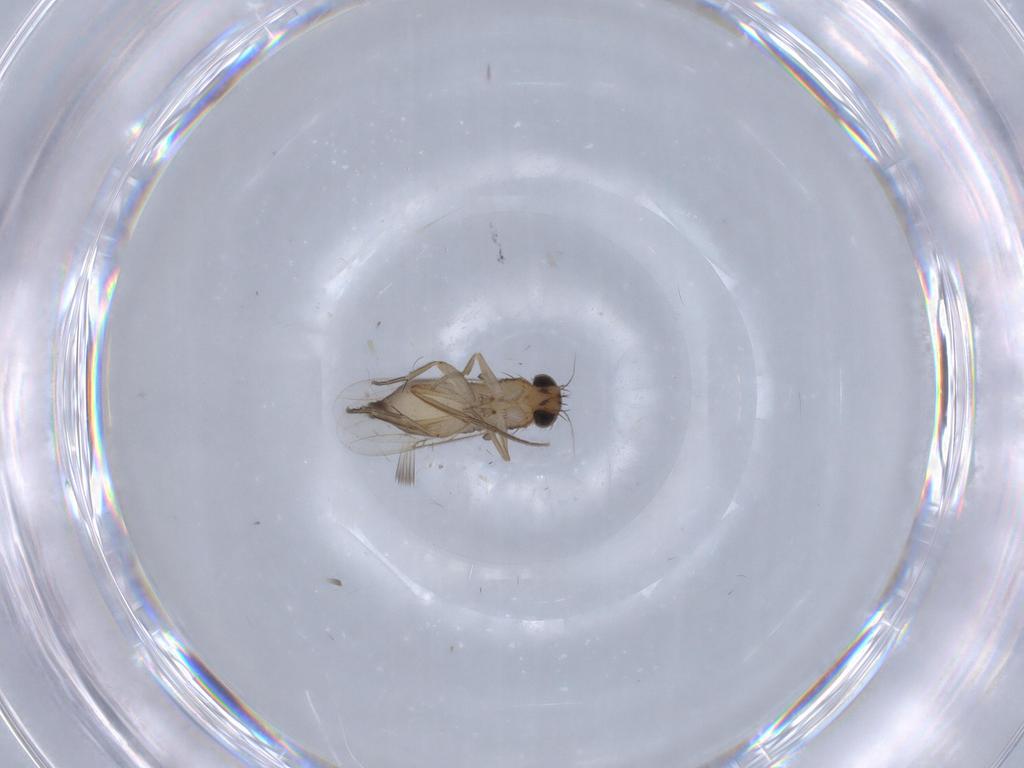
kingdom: Animalia
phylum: Arthropoda
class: Insecta
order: Diptera
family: Phoridae
